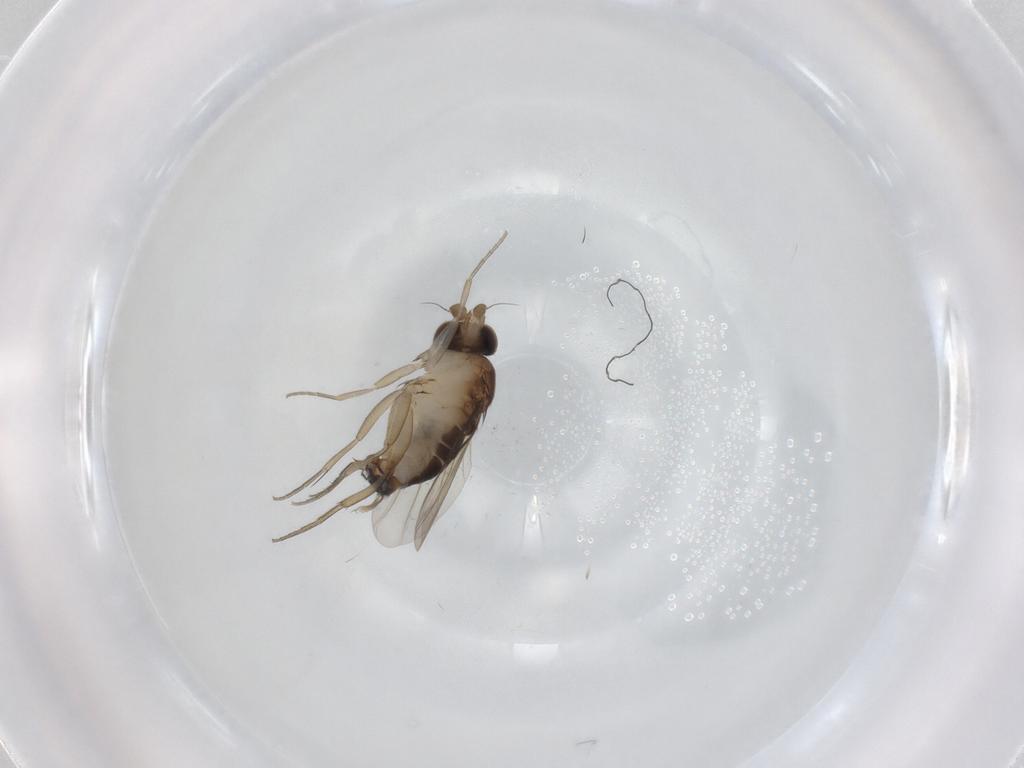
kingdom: Animalia
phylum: Arthropoda
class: Insecta
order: Diptera
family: Phoridae
